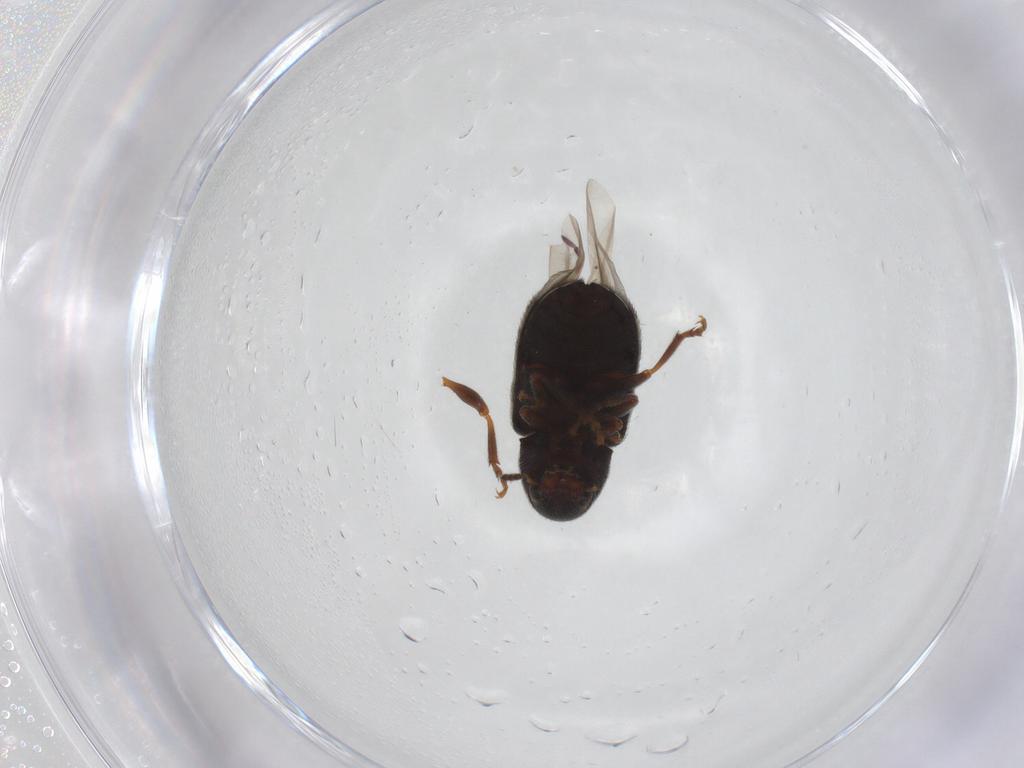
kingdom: Animalia
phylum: Arthropoda
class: Insecta
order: Coleoptera
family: Anthribidae
